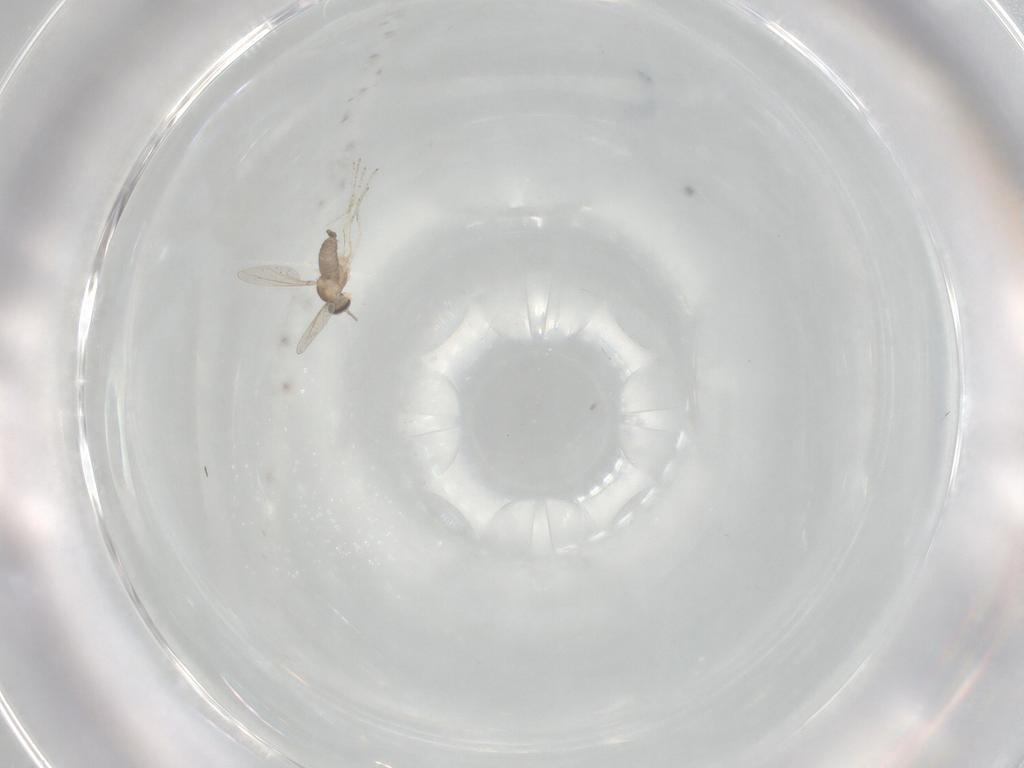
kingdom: Animalia
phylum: Arthropoda
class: Insecta
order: Diptera
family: Cecidomyiidae
